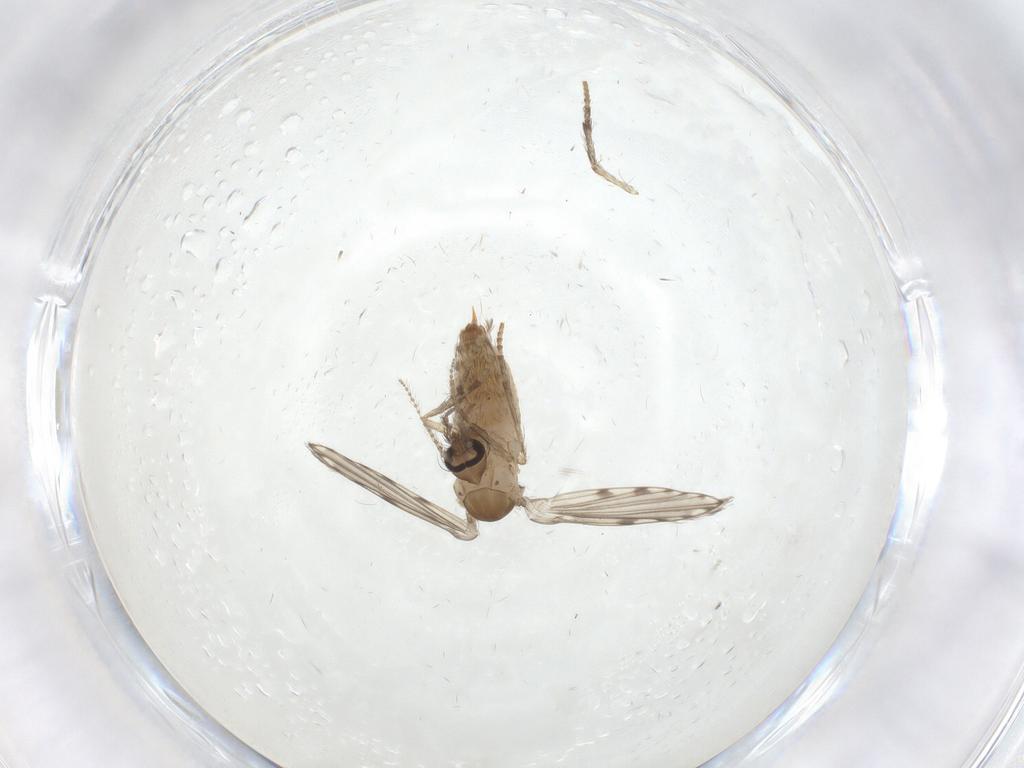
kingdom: Animalia
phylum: Arthropoda
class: Insecta
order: Diptera
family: Psychodidae
